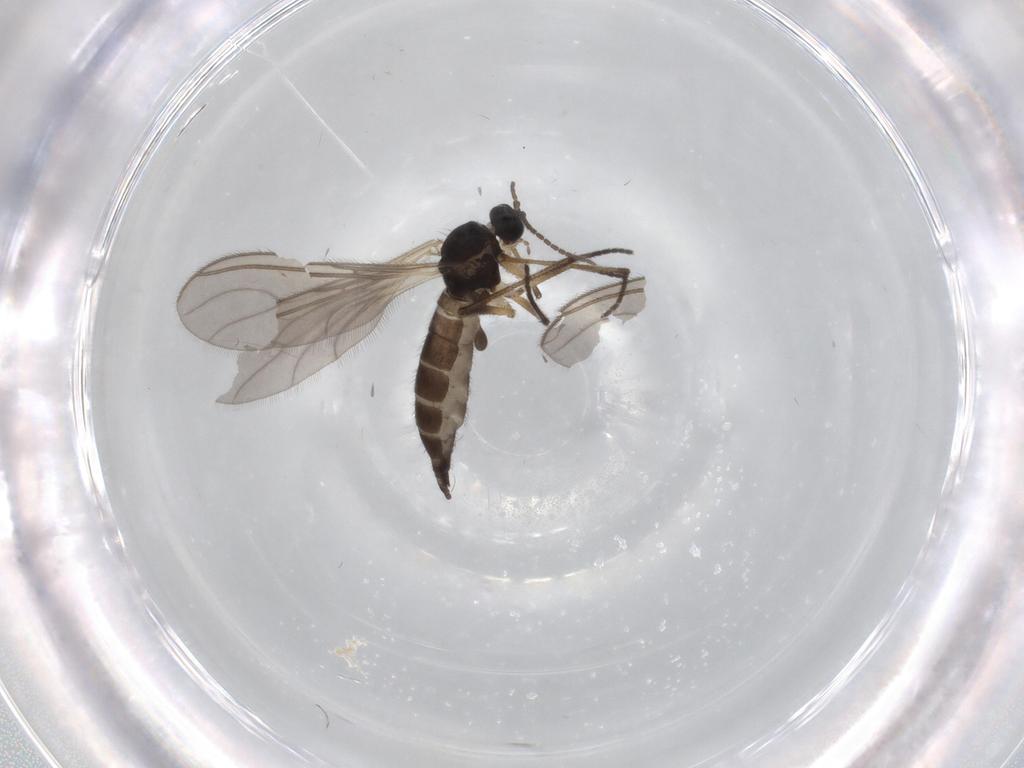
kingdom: Animalia
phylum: Arthropoda
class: Insecta
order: Diptera
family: Sciaridae
